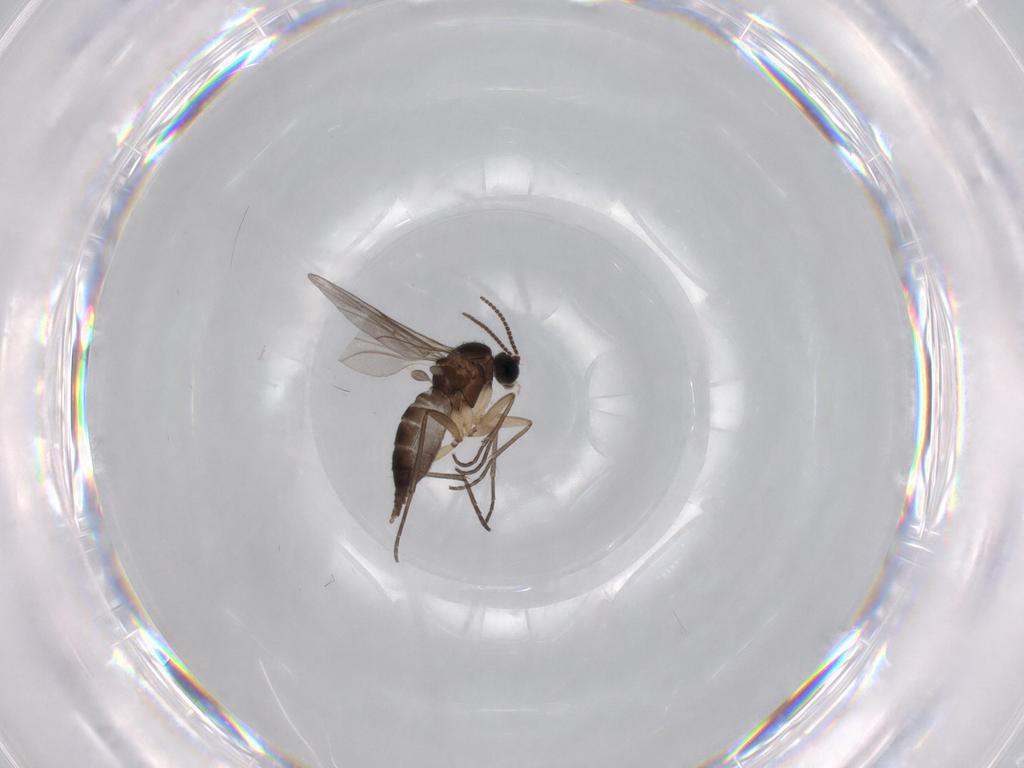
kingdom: Animalia
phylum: Arthropoda
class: Insecta
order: Diptera
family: Sciaridae
